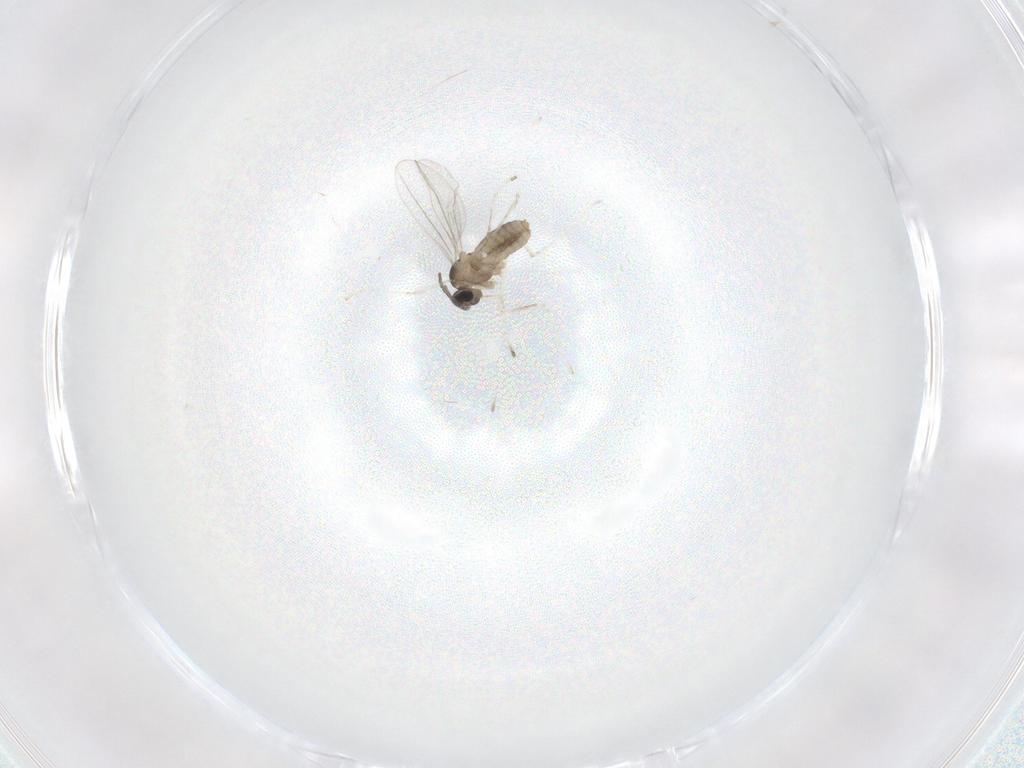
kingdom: Animalia
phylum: Arthropoda
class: Insecta
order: Diptera
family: Cecidomyiidae
